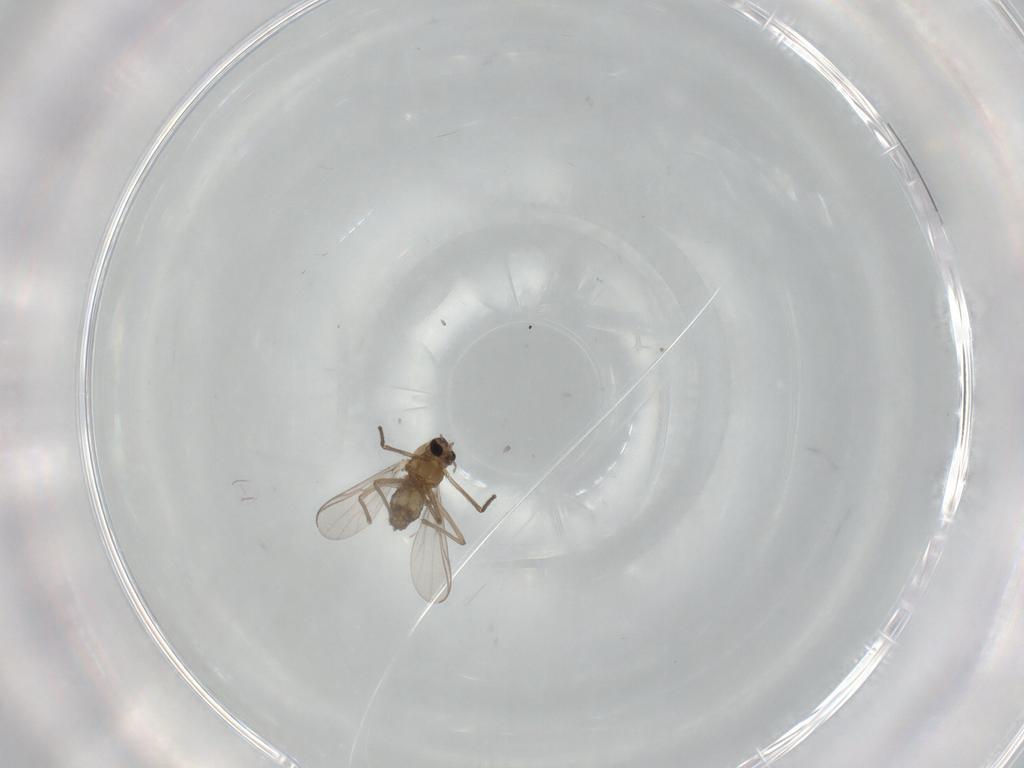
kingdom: Animalia
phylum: Arthropoda
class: Insecta
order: Diptera
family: Chironomidae
